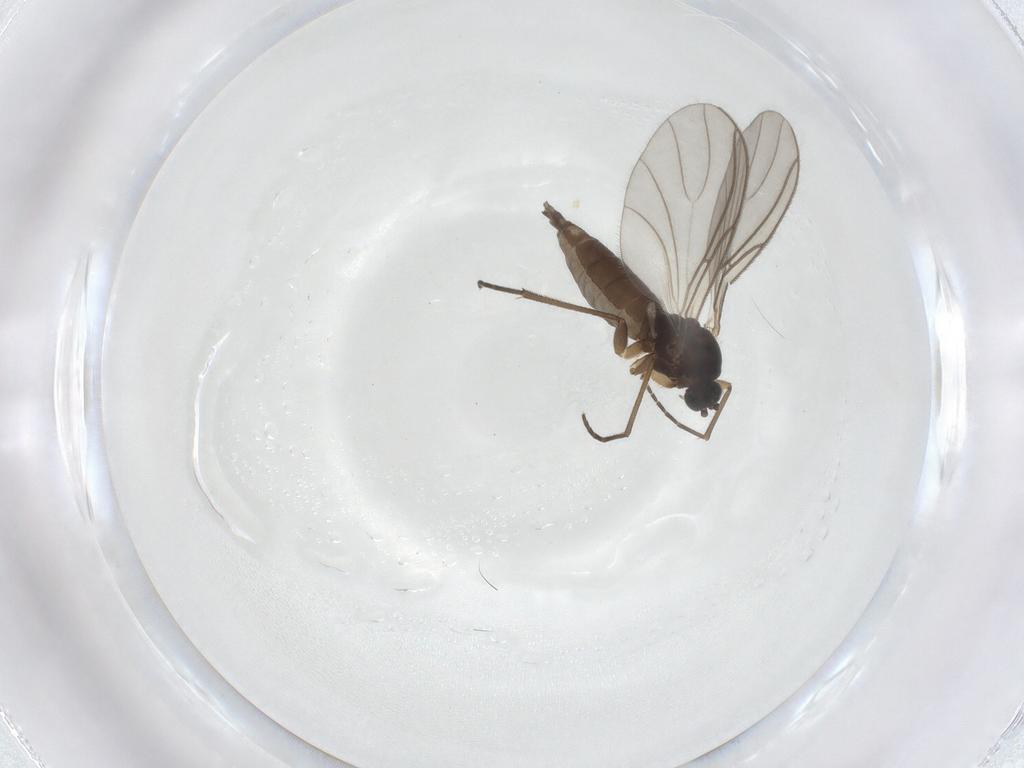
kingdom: Animalia
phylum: Arthropoda
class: Insecta
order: Diptera
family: Sciaridae
